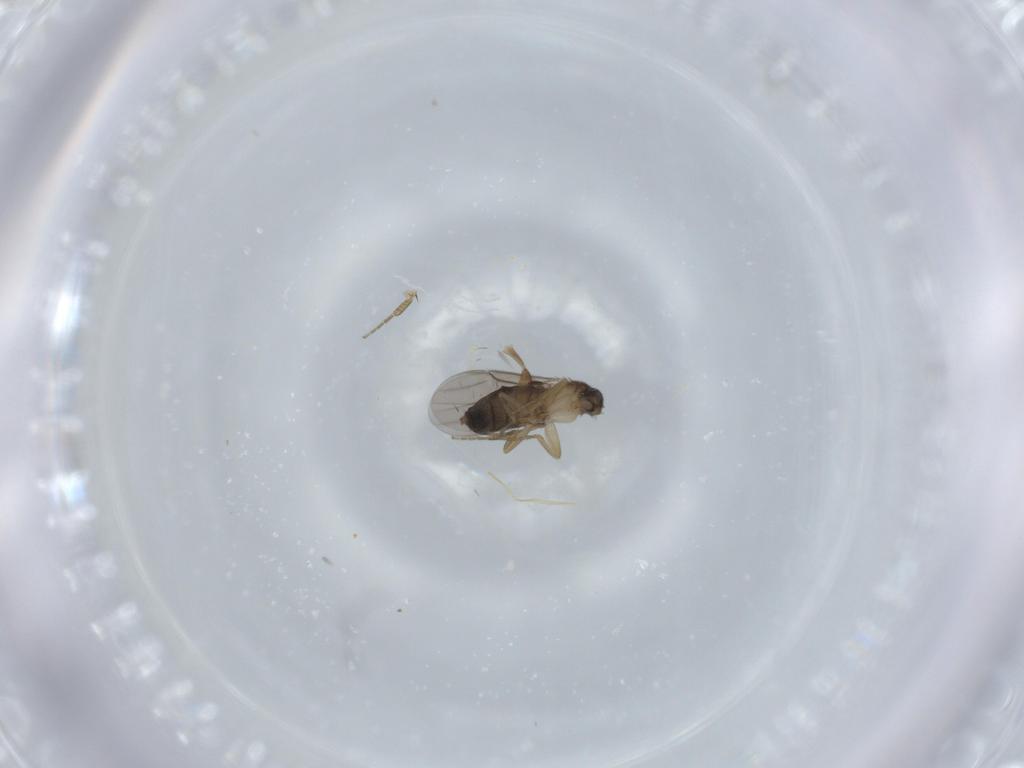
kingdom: Animalia
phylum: Arthropoda
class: Insecta
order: Diptera
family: Phoridae
